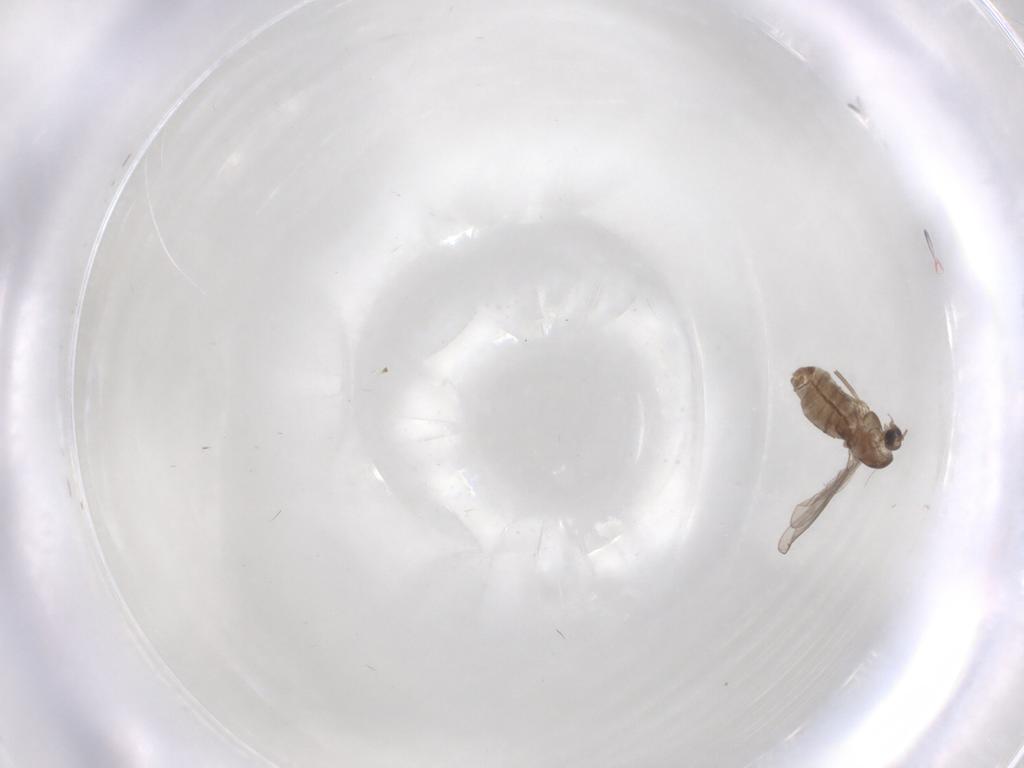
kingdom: Animalia
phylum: Arthropoda
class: Insecta
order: Diptera
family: Chironomidae
